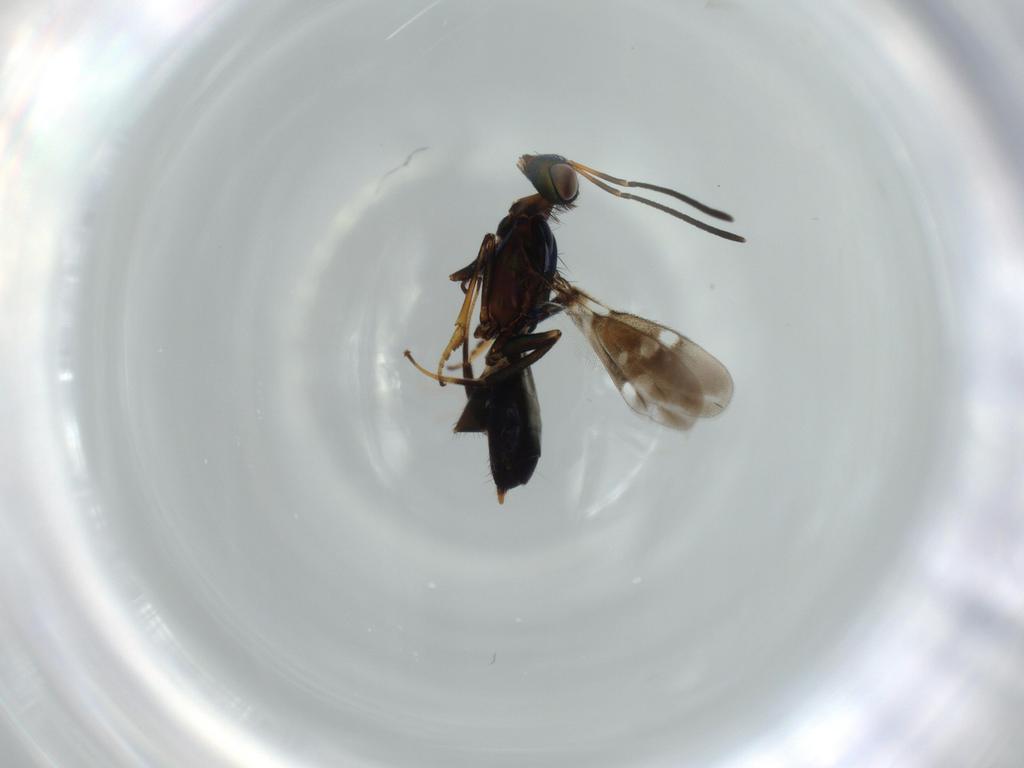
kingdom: Animalia
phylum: Arthropoda
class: Insecta
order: Hymenoptera
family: Eupelmidae
